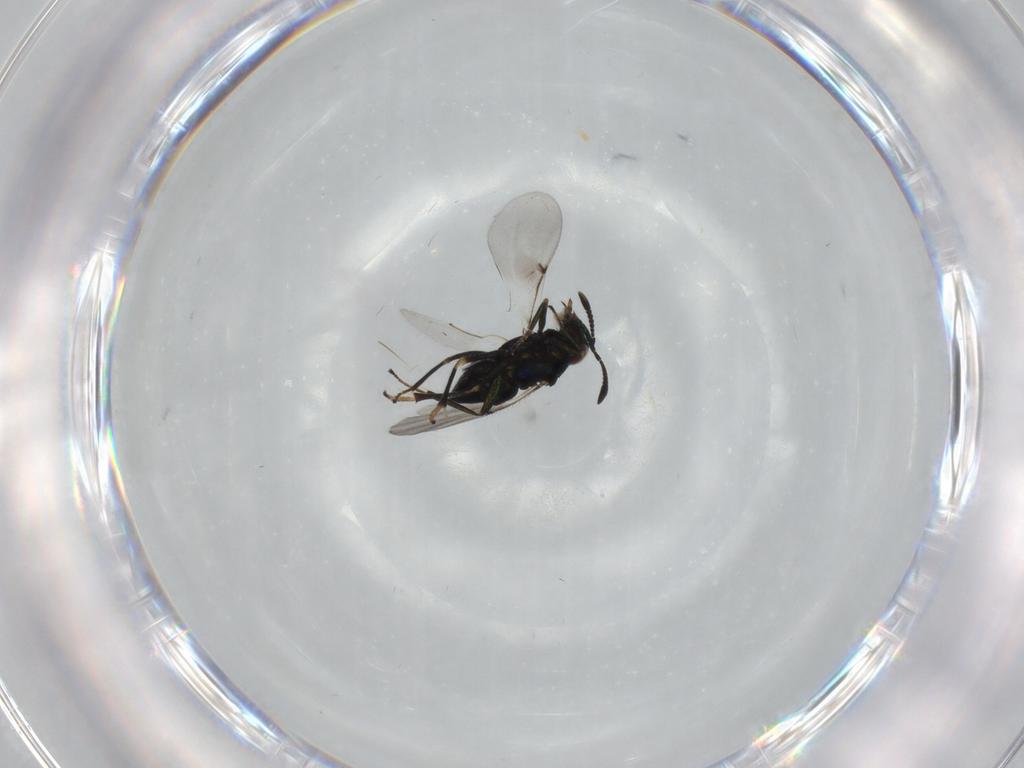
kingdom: Animalia
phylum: Arthropoda
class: Insecta
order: Hymenoptera
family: Encyrtidae
